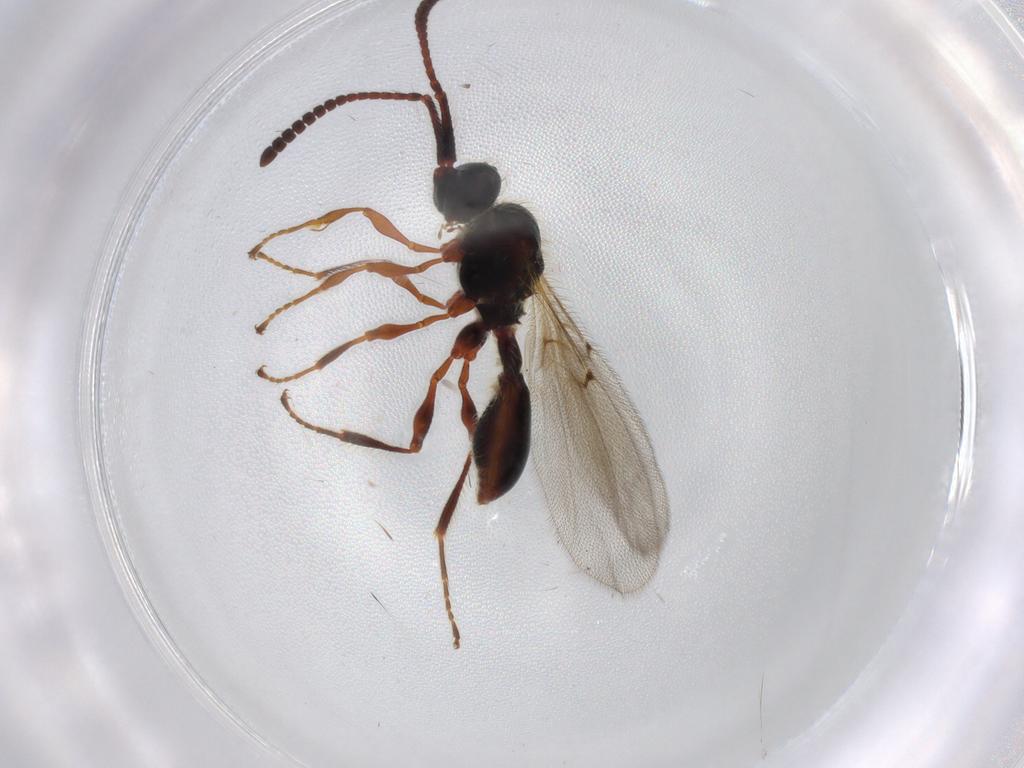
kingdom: Animalia
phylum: Arthropoda
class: Insecta
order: Hymenoptera
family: Diapriidae
